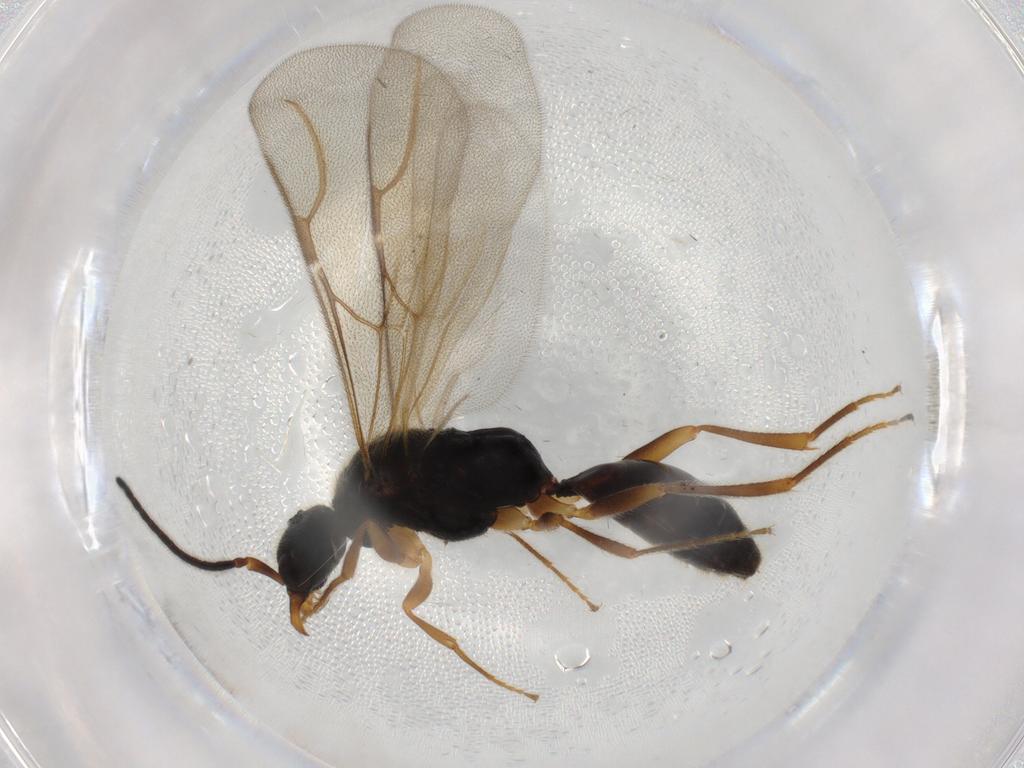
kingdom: Animalia
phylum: Arthropoda
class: Insecta
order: Hymenoptera
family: Bethylidae
